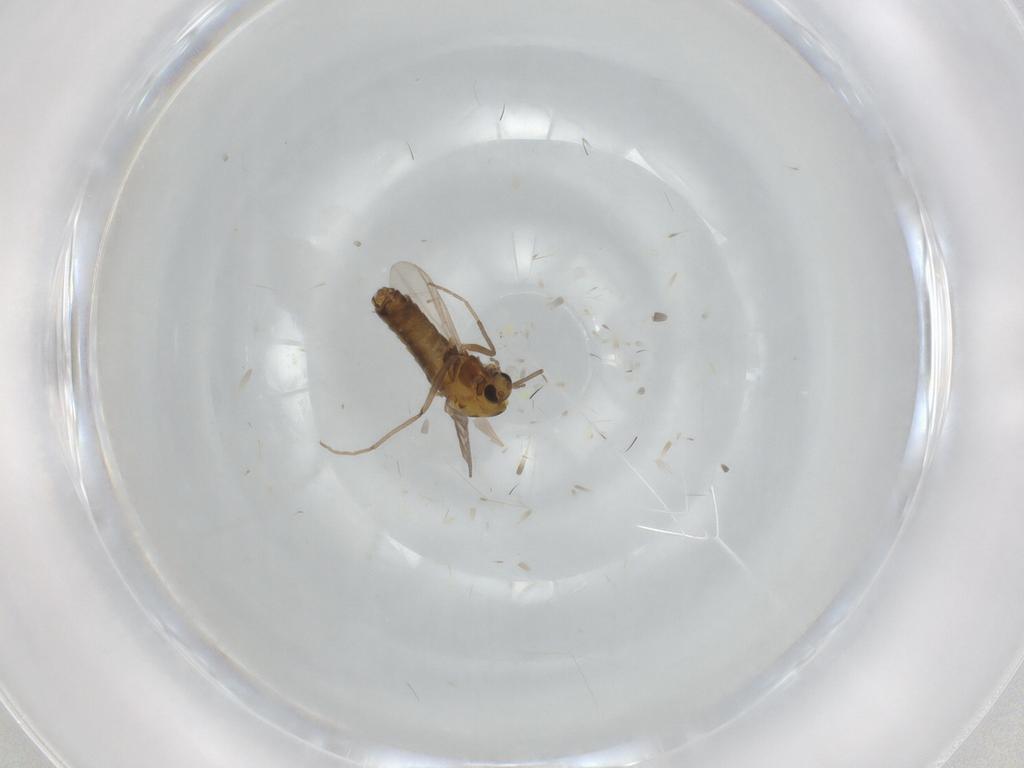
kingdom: Animalia
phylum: Arthropoda
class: Insecta
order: Diptera
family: Chironomidae
